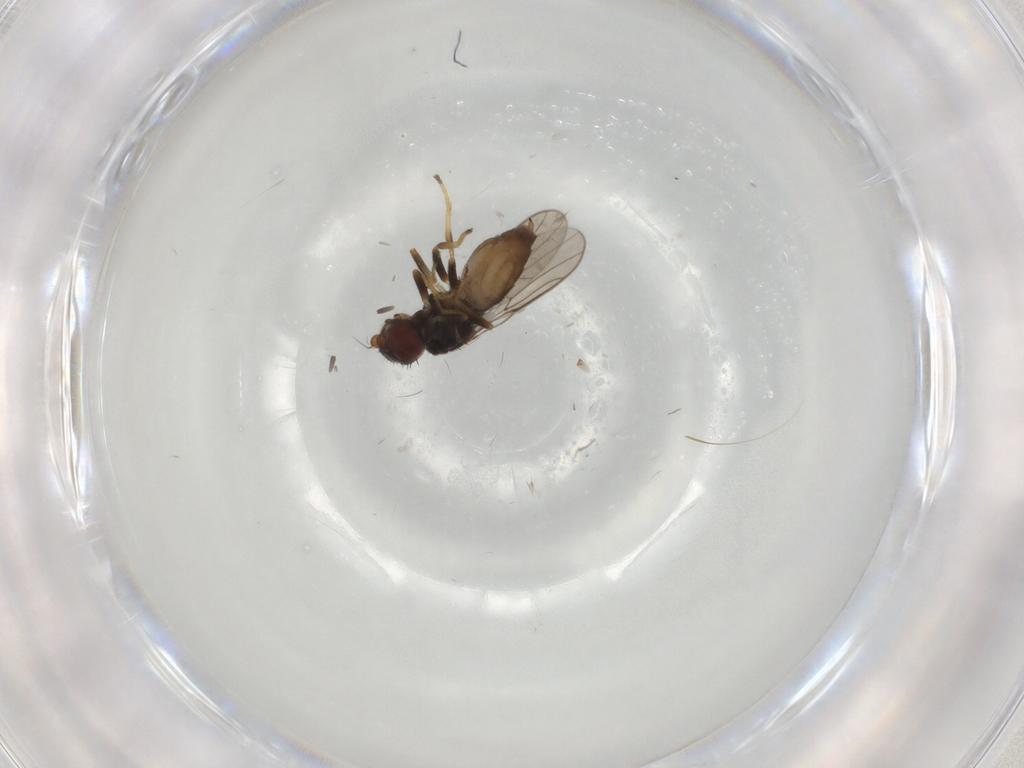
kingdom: Animalia
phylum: Arthropoda
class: Insecta
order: Diptera
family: Chloropidae
